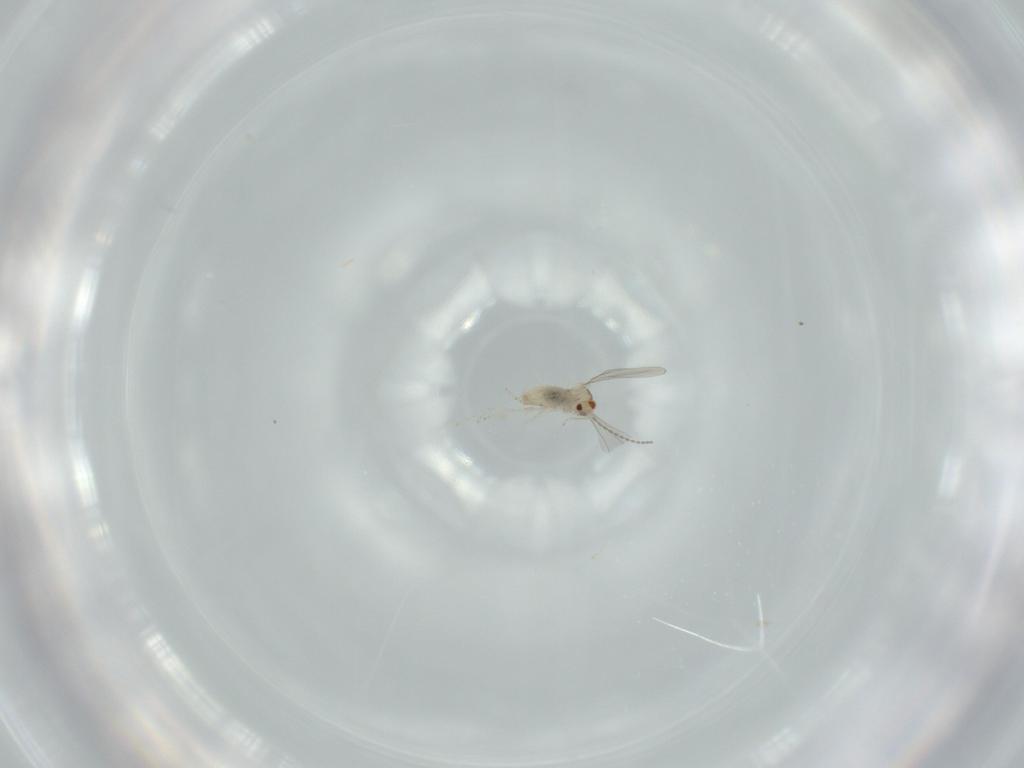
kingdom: Animalia
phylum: Arthropoda
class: Insecta
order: Diptera
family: Cecidomyiidae
